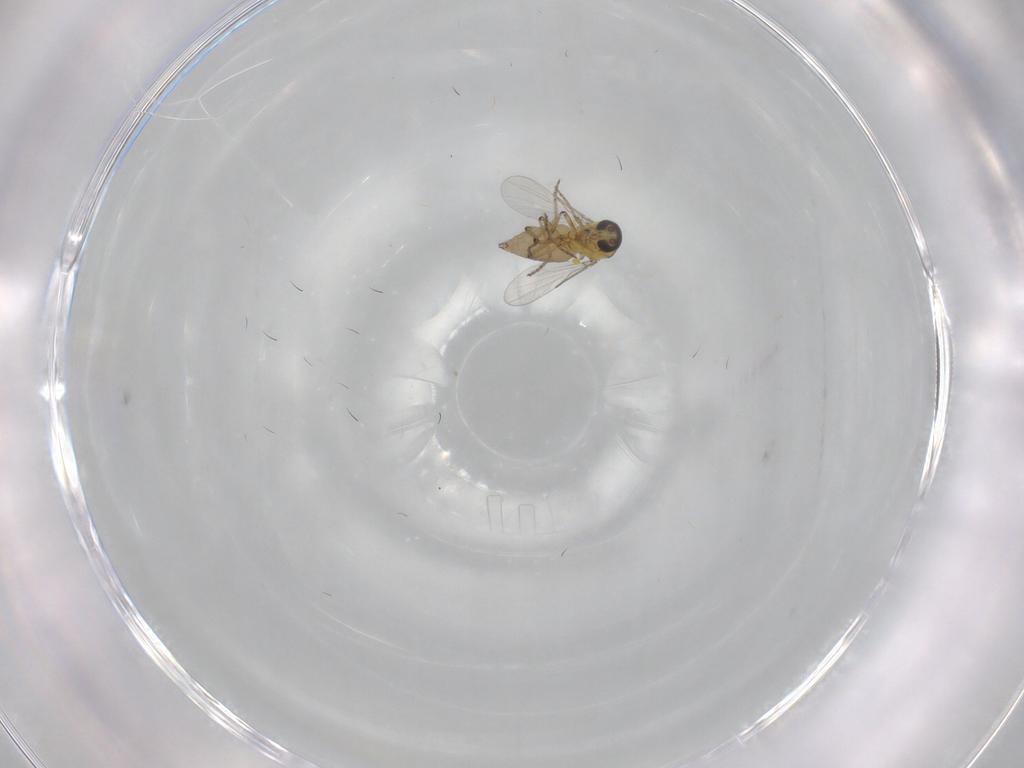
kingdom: Animalia
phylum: Arthropoda
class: Insecta
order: Diptera
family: Ceratopogonidae
